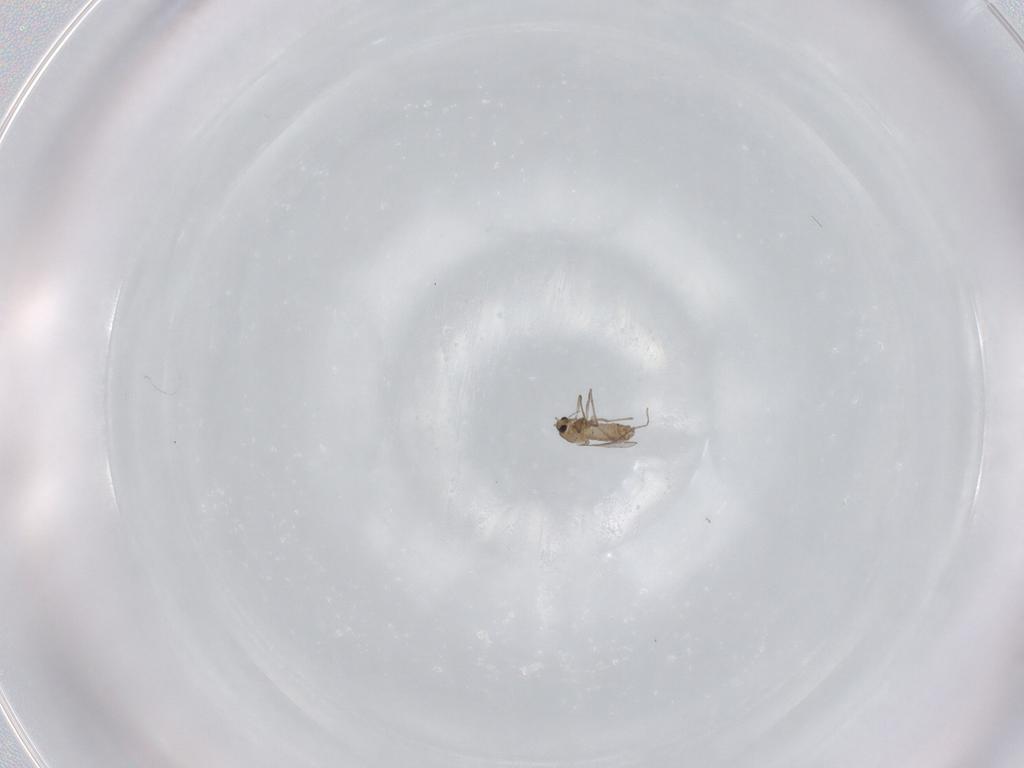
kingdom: Animalia
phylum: Arthropoda
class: Insecta
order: Diptera
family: Chironomidae
